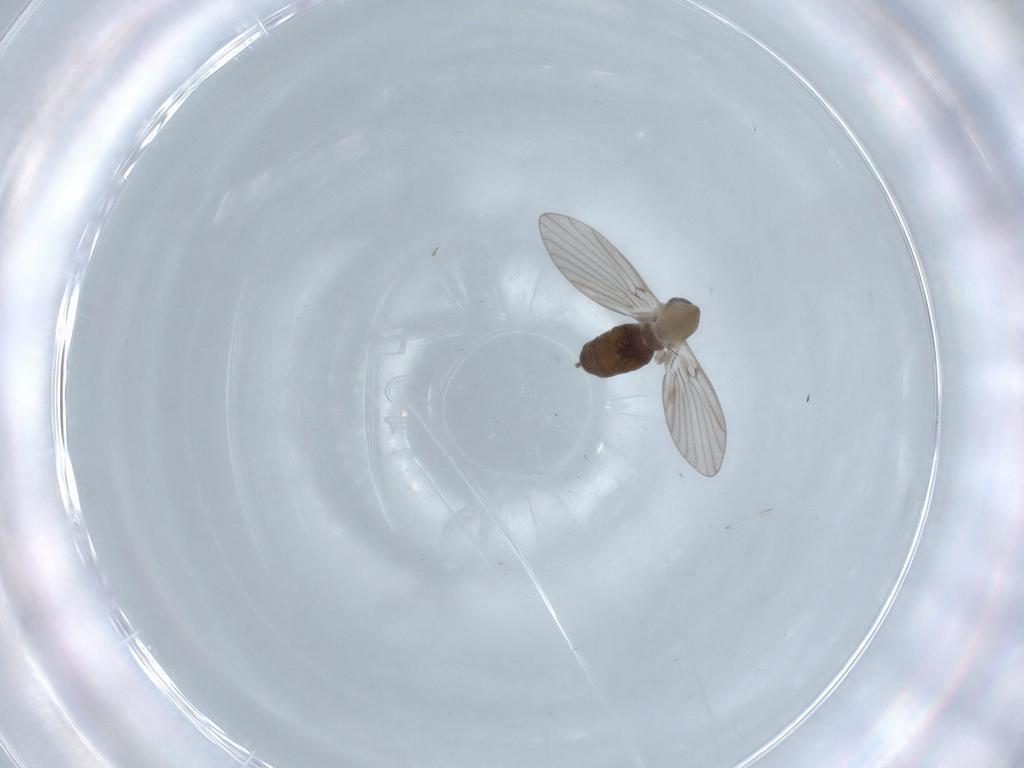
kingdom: Animalia
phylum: Arthropoda
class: Insecta
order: Diptera
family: Psychodidae
